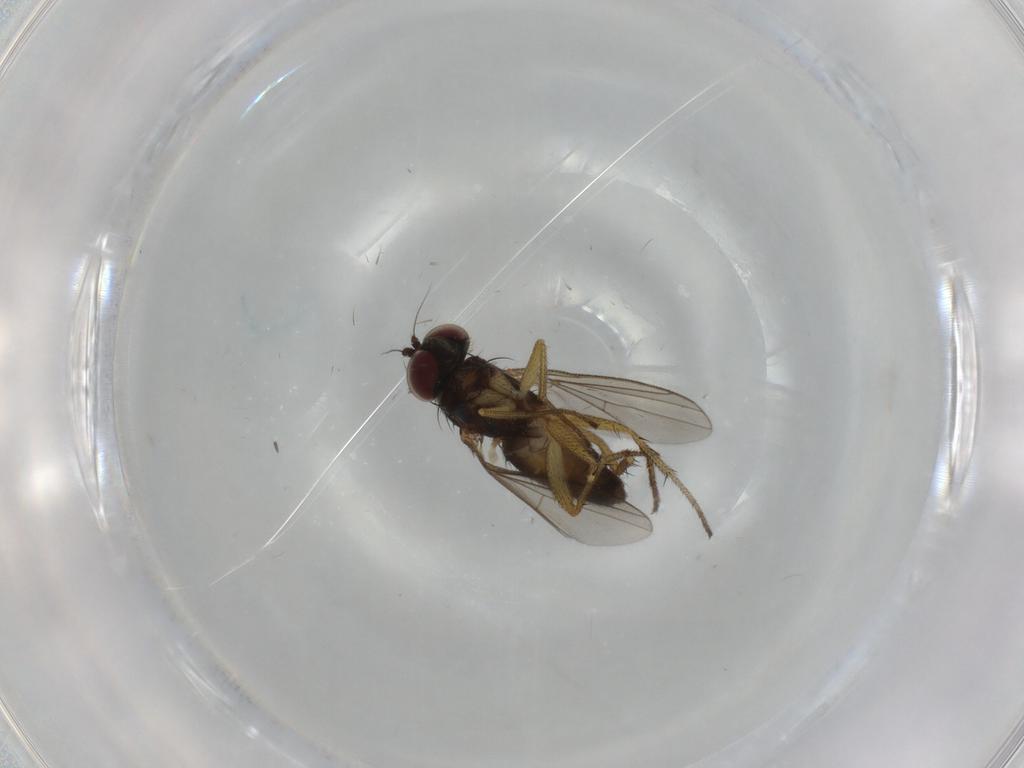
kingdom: Animalia
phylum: Arthropoda
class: Insecta
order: Diptera
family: Dolichopodidae
